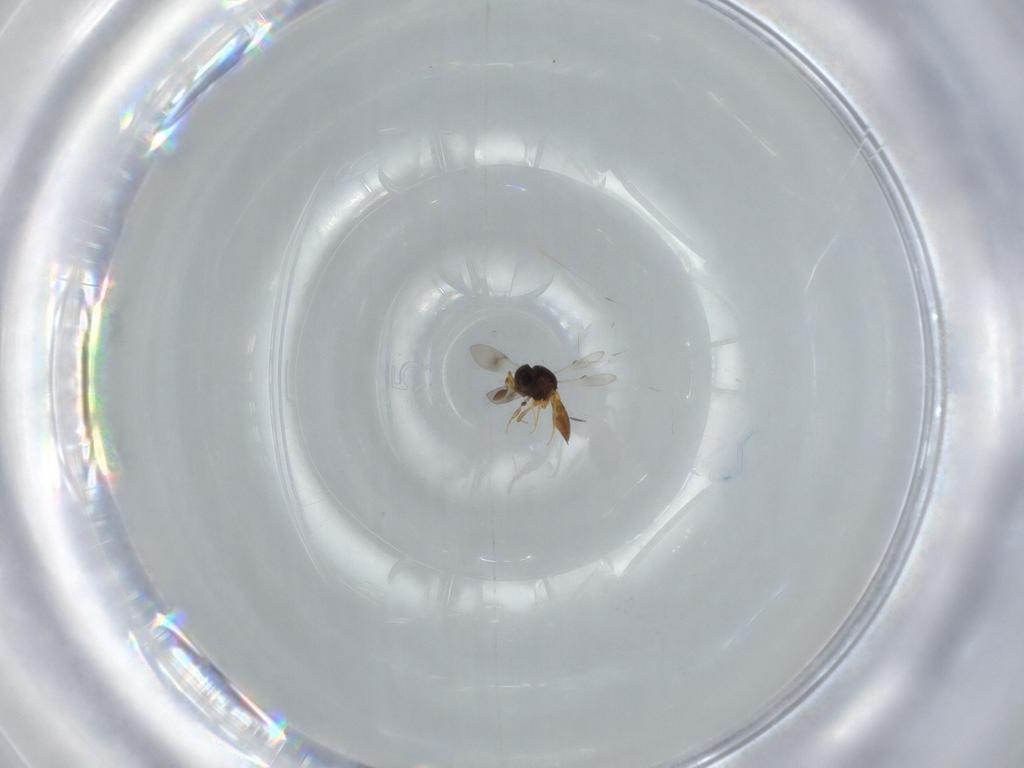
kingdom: Animalia
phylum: Arthropoda
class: Insecta
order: Hymenoptera
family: Scelionidae
